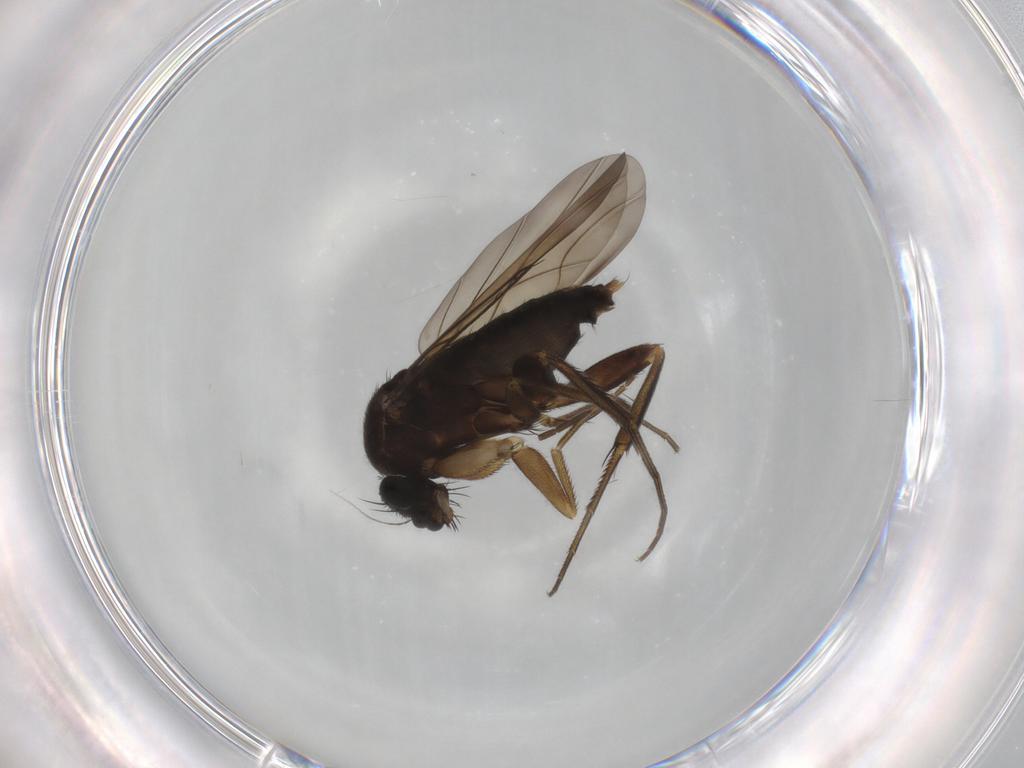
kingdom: Animalia
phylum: Arthropoda
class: Insecta
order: Diptera
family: Phoridae
